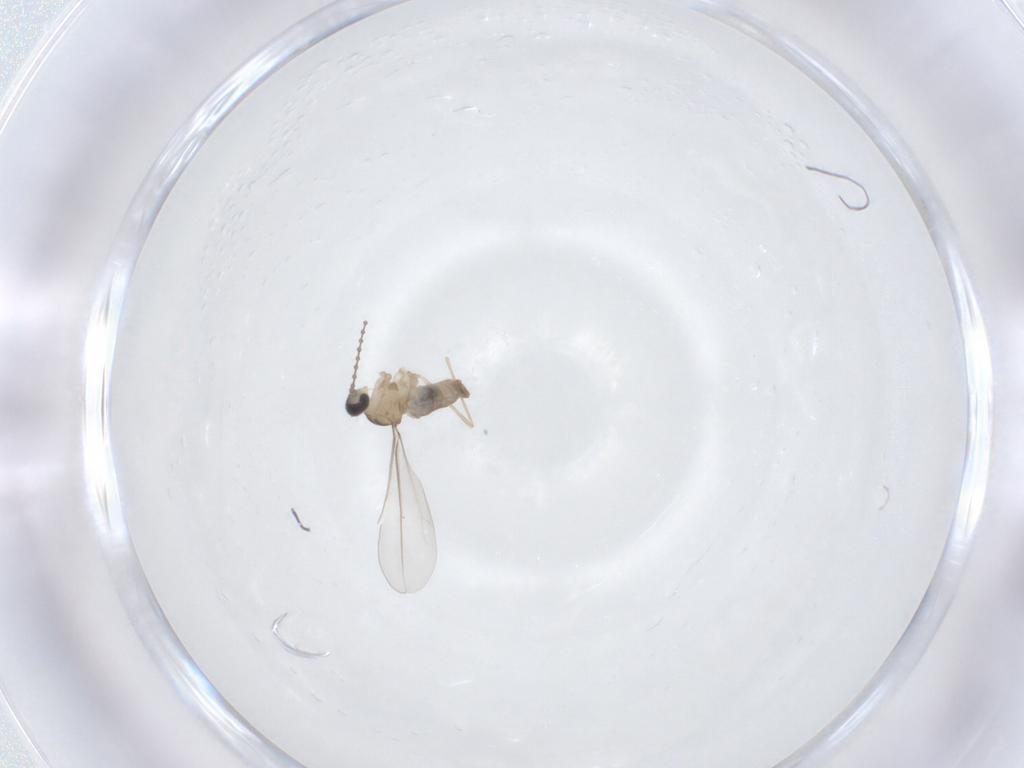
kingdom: Animalia
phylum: Arthropoda
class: Insecta
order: Diptera
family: Cecidomyiidae
